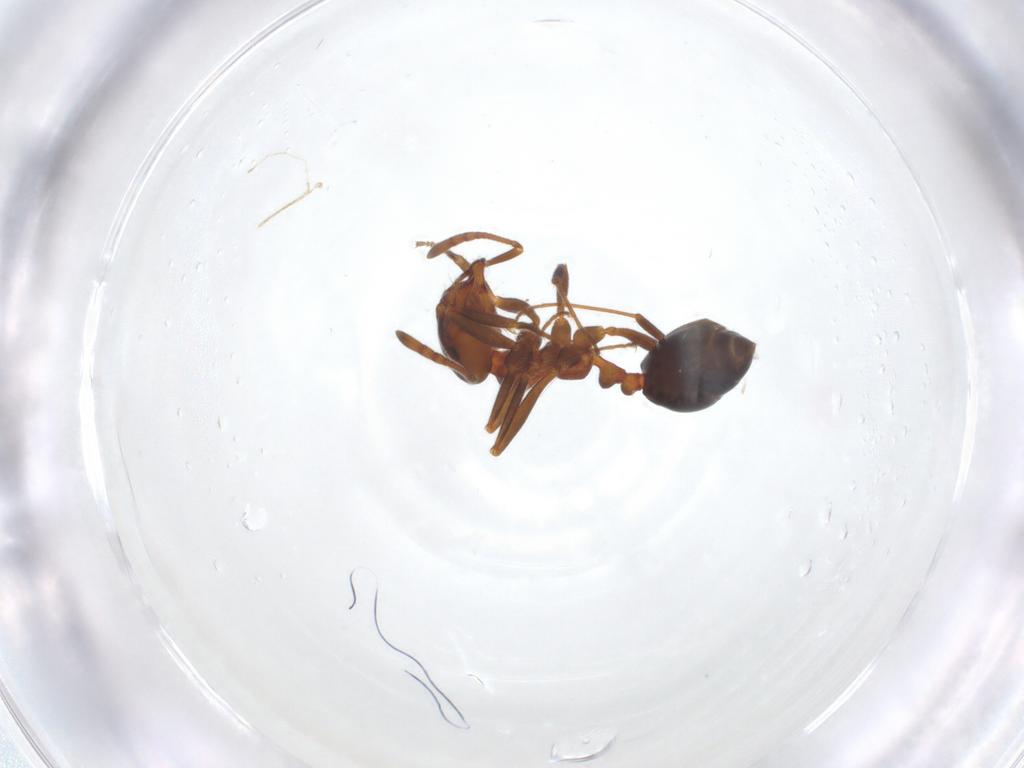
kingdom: Animalia
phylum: Arthropoda
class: Insecta
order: Hymenoptera
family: Formicidae
